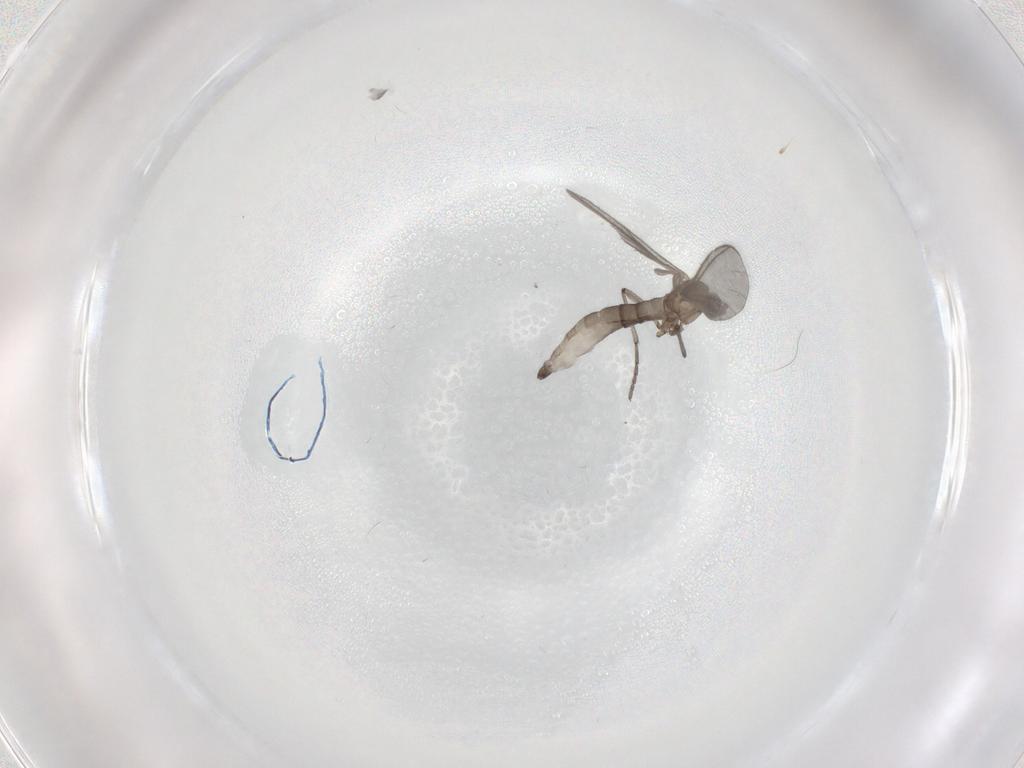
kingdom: Animalia
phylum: Arthropoda
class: Insecta
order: Diptera
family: Sciaridae
